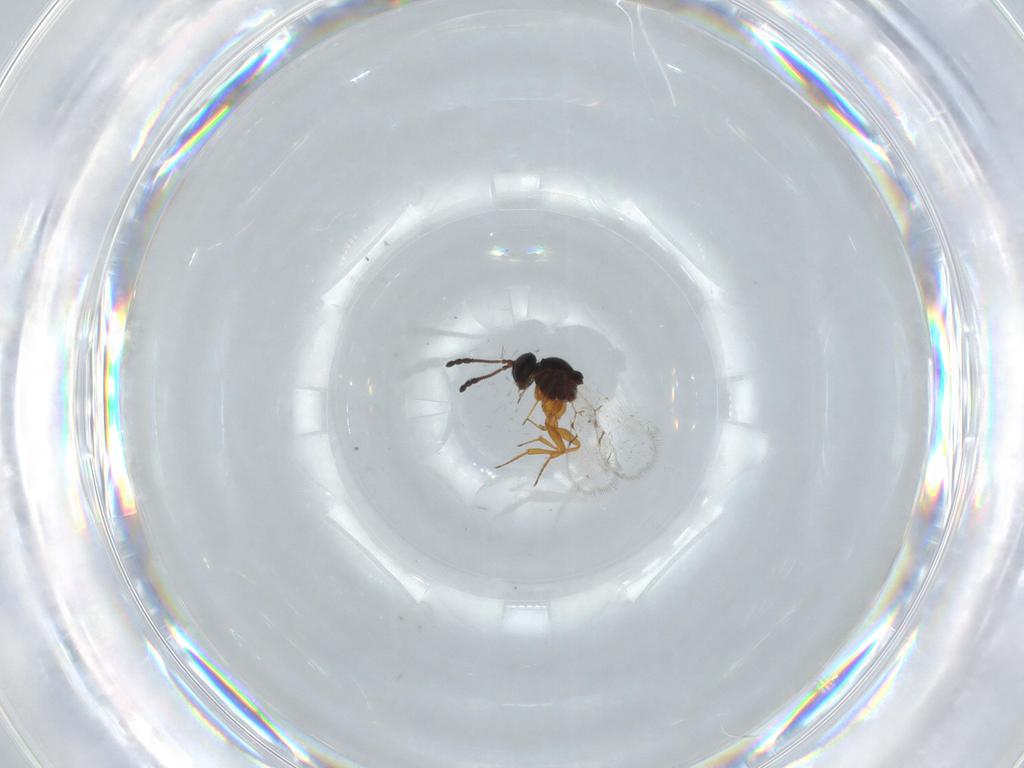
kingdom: Animalia
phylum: Arthropoda
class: Insecta
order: Hymenoptera
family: Figitidae
